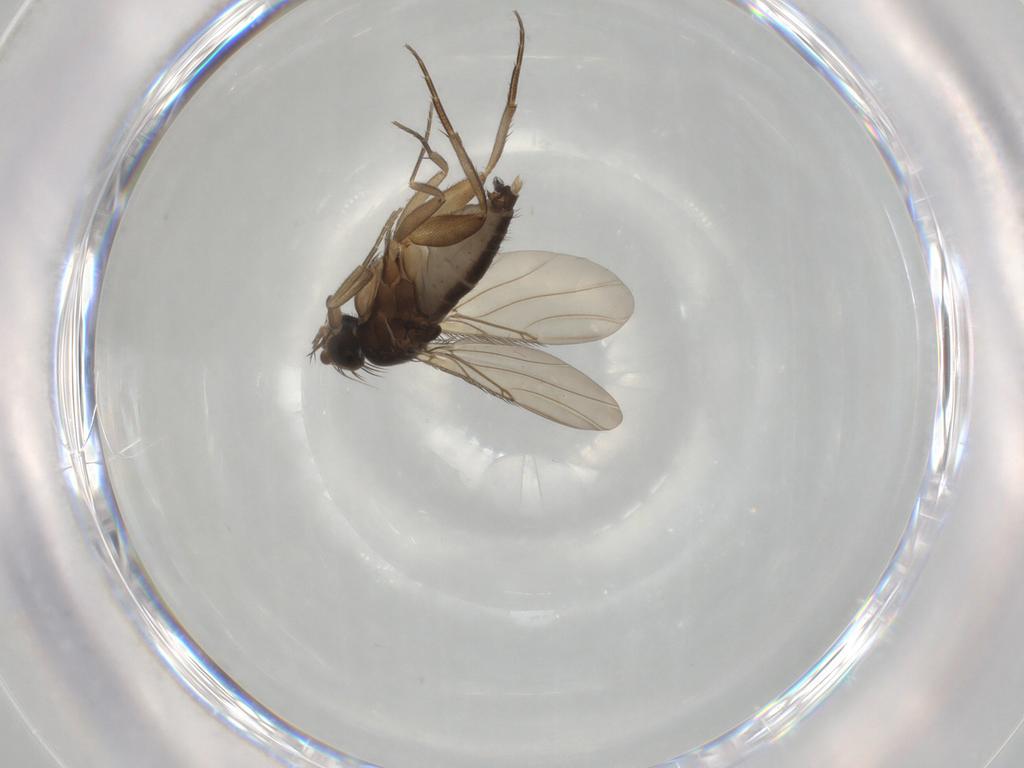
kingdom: Animalia
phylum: Arthropoda
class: Insecta
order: Diptera
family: Phoridae
